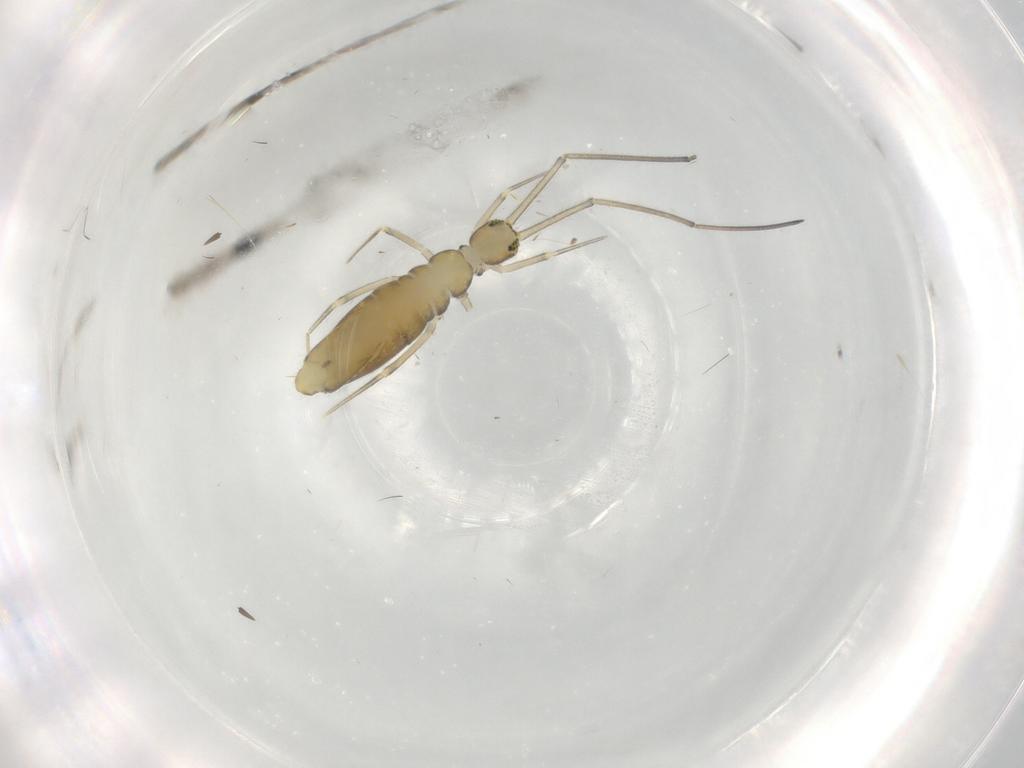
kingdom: Animalia
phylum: Arthropoda
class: Collembola
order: Entomobryomorpha
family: Paronellidae
